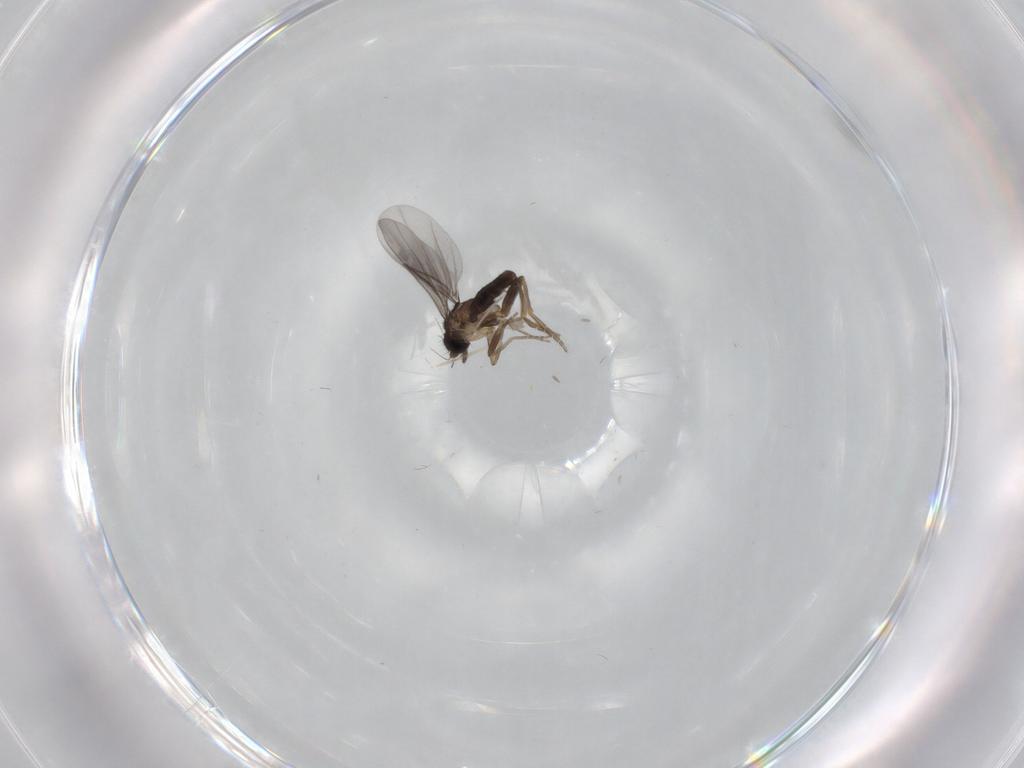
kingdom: Animalia
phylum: Arthropoda
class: Insecta
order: Diptera
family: Cecidomyiidae
